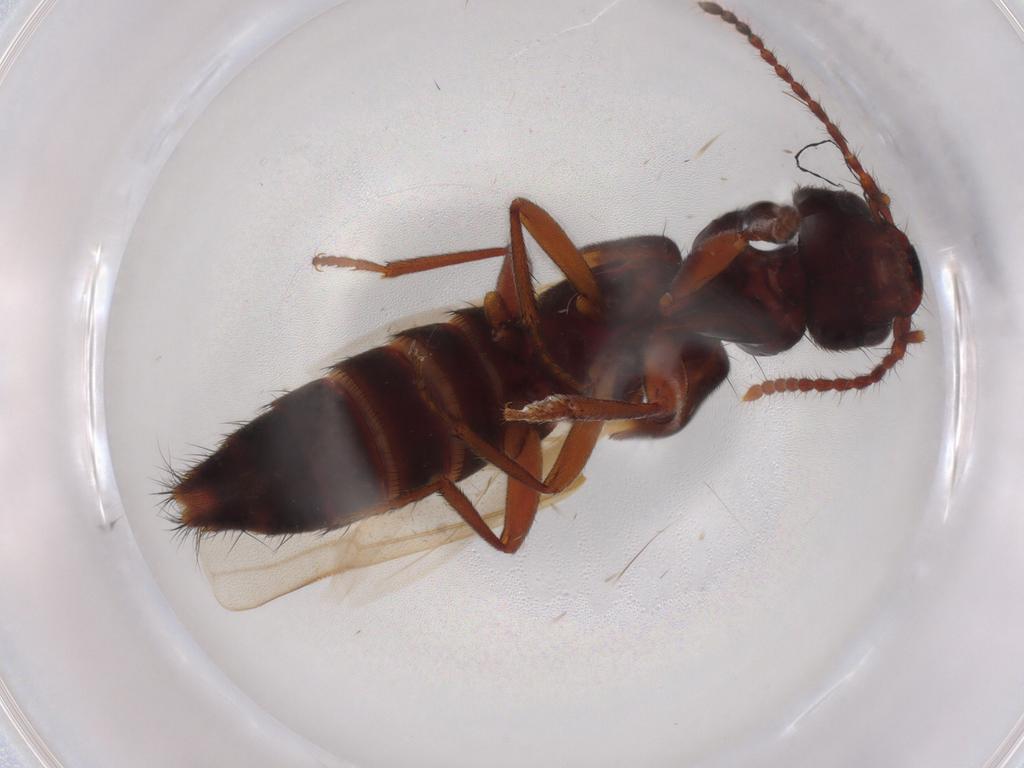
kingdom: Animalia
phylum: Arthropoda
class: Insecta
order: Coleoptera
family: Staphylinidae
